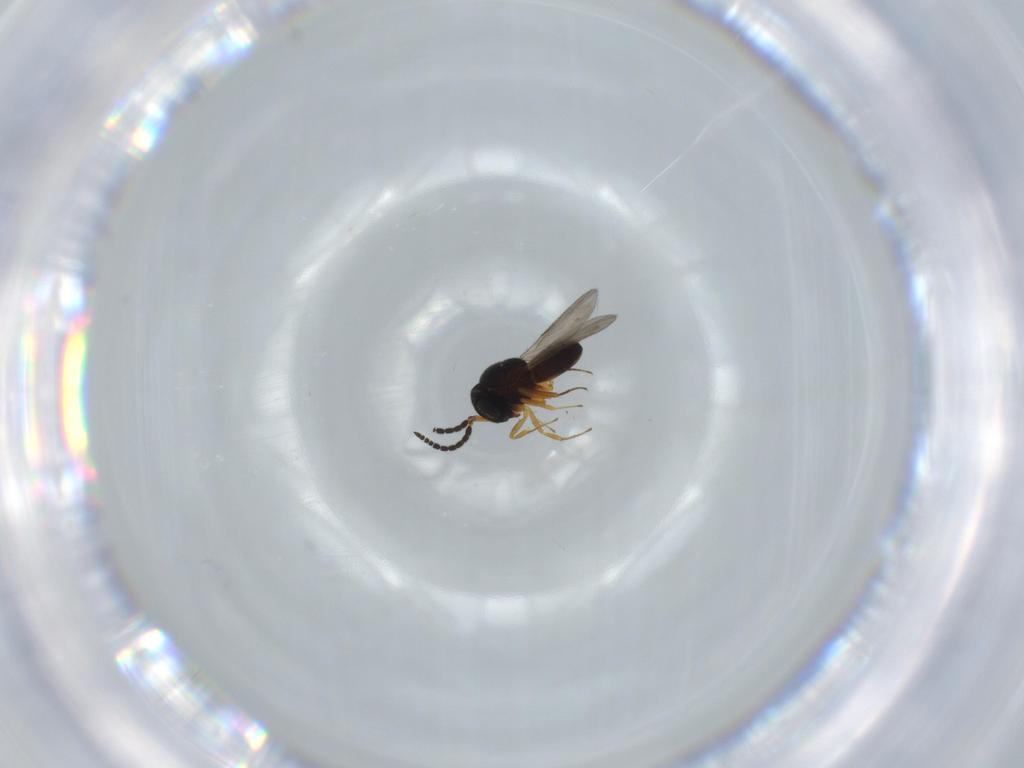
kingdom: Animalia
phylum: Arthropoda
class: Insecta
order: Hymenoptera
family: Scelionidae
